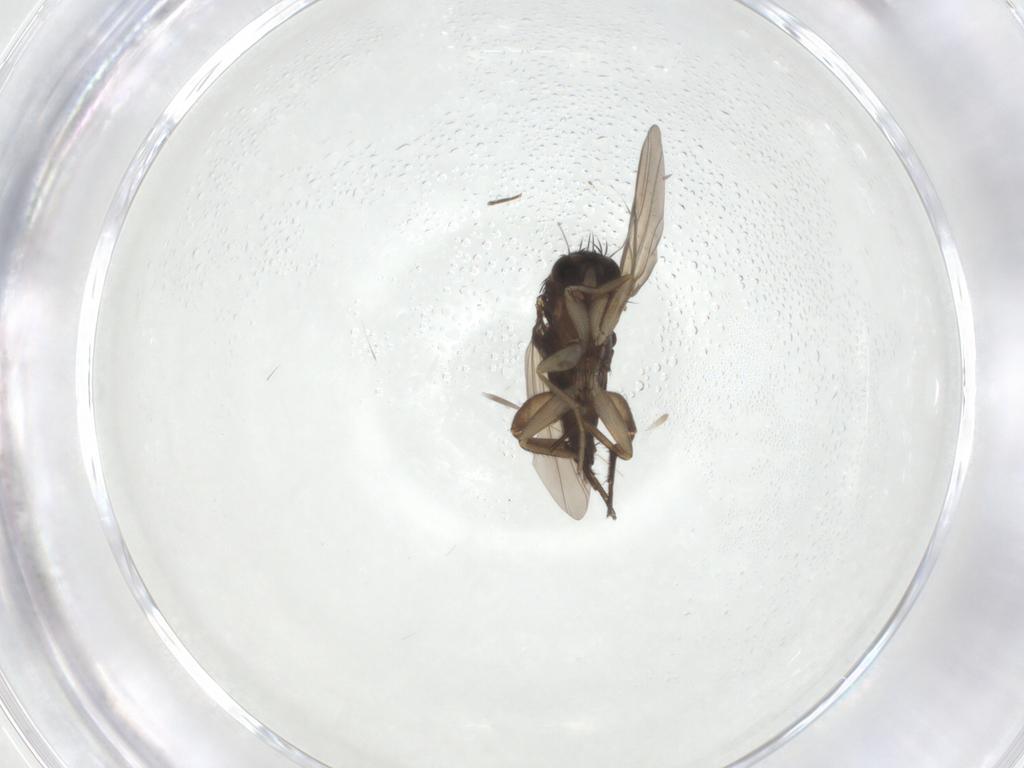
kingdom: Animalia
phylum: Arthropoda
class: Insecta
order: Diptera
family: Phoridae
